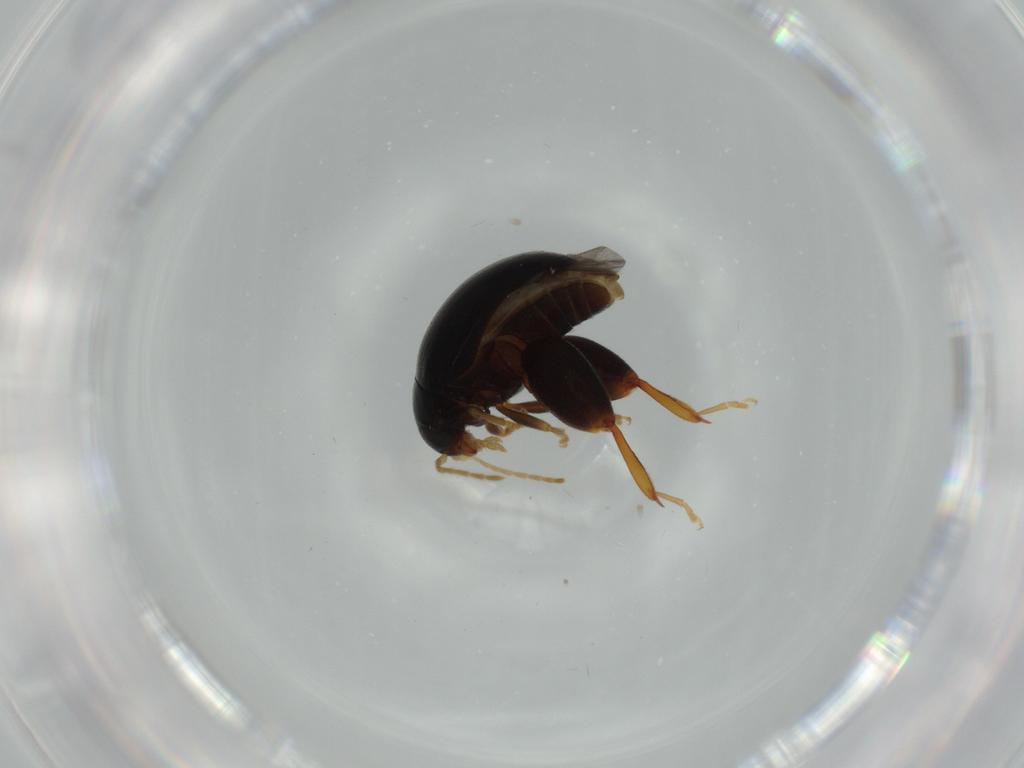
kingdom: Animalia
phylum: Arthropoda
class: Insecta
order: Coleoptera
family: Chrysomelidae
